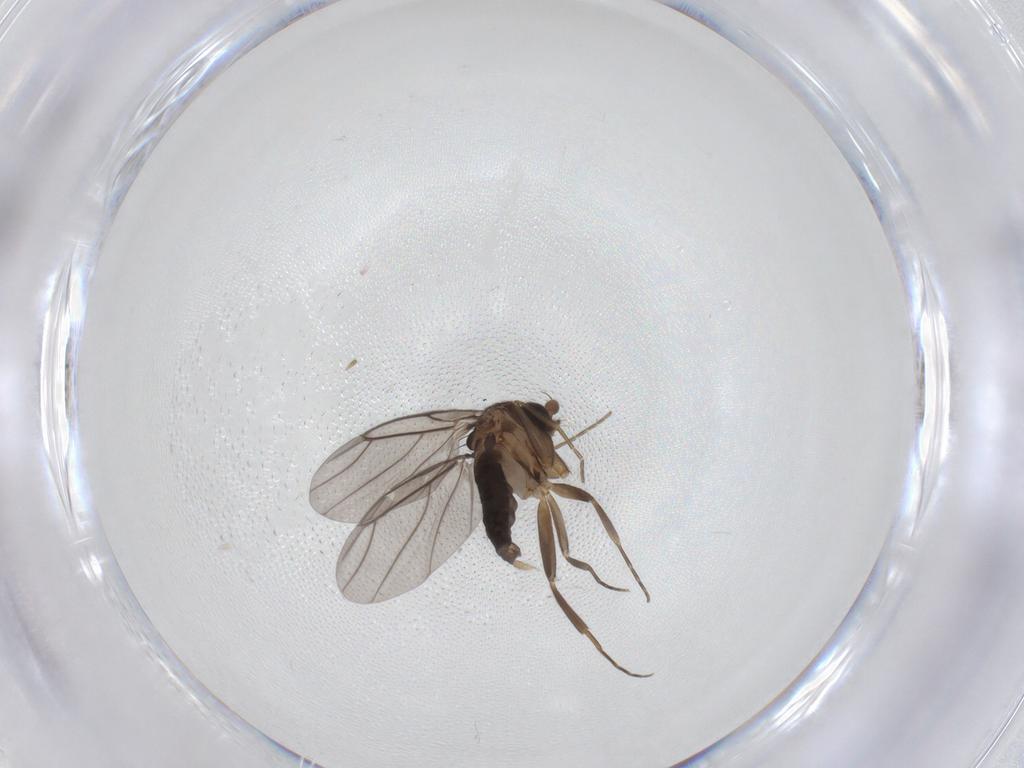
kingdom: Animalia
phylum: Arthropoda
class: Insecta
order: Diptera
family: Phoridae
